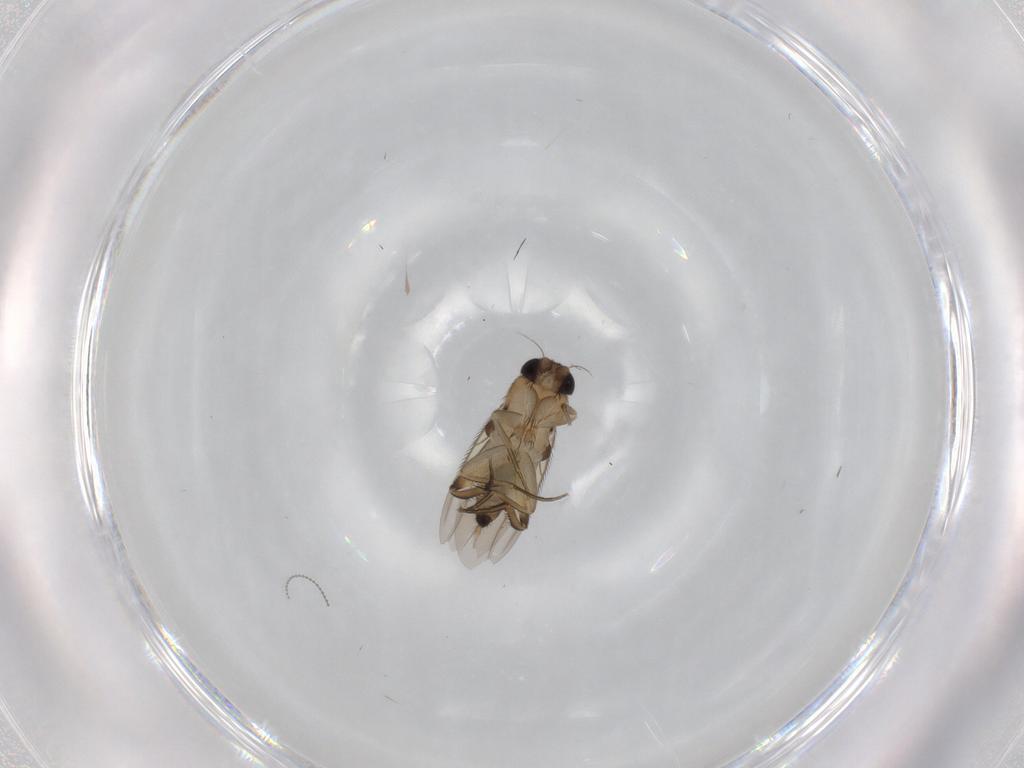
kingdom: Animalia
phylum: Arthropoda
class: Insecta
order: Diptera
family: Phoridae
